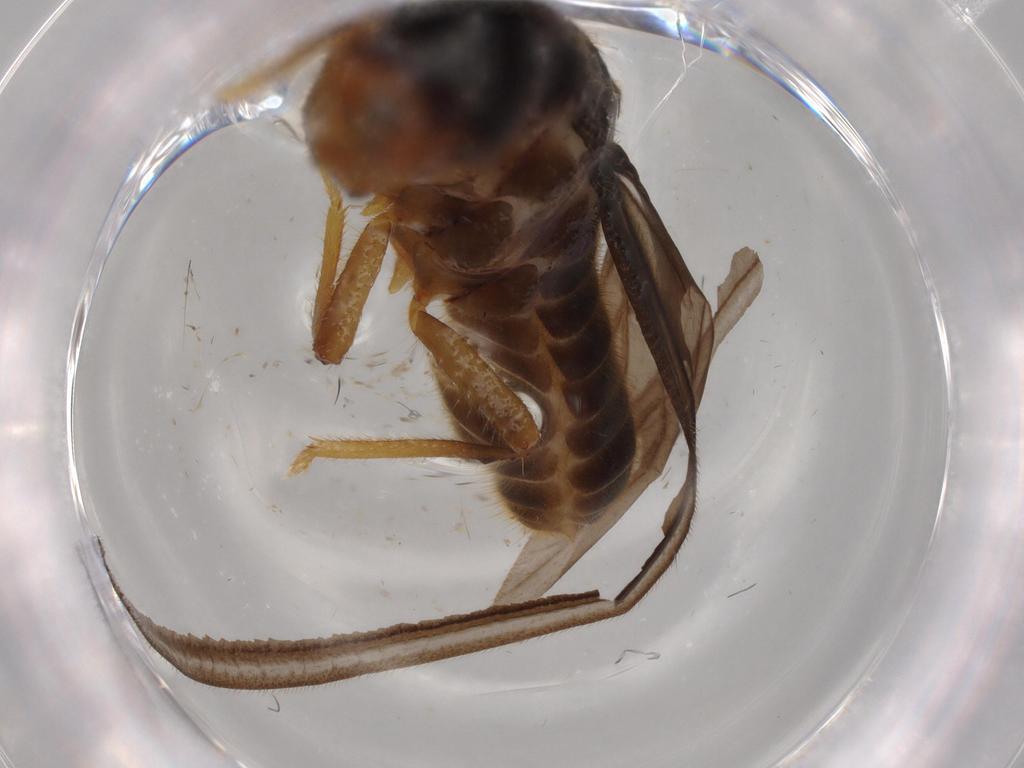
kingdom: Animalia
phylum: Arthropoda
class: Insecta
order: Blattodea
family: Termitidae
